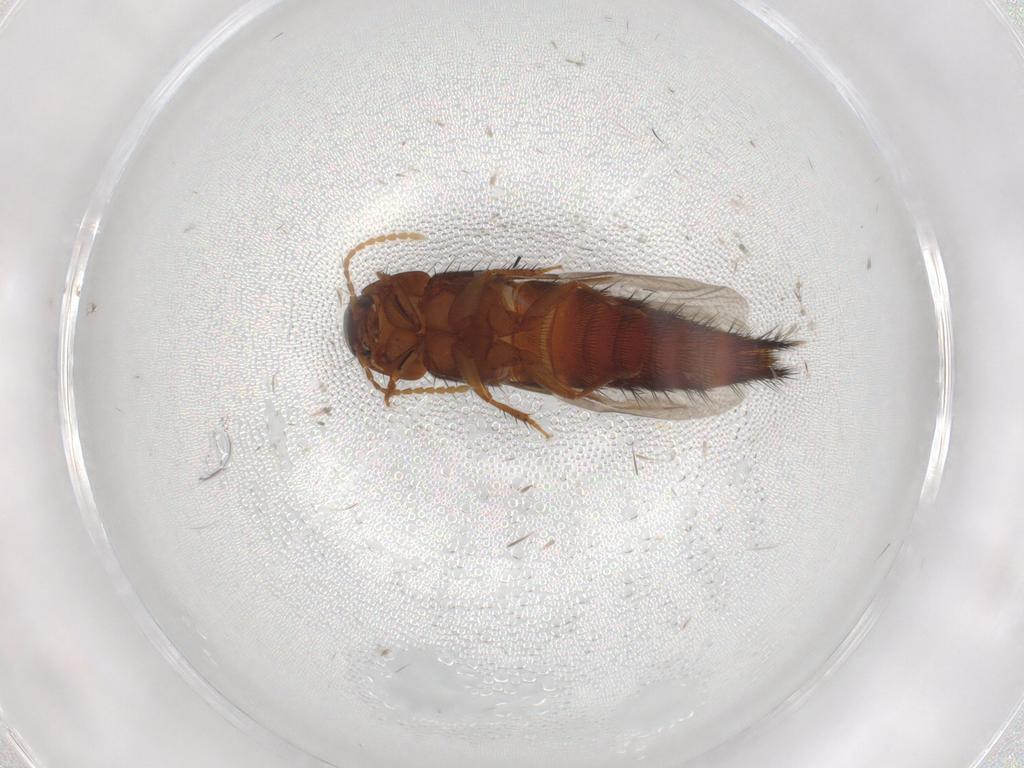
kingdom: Animalia
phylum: Arthropoda
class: Insecta
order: Coleoptera
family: Staphylinidae
